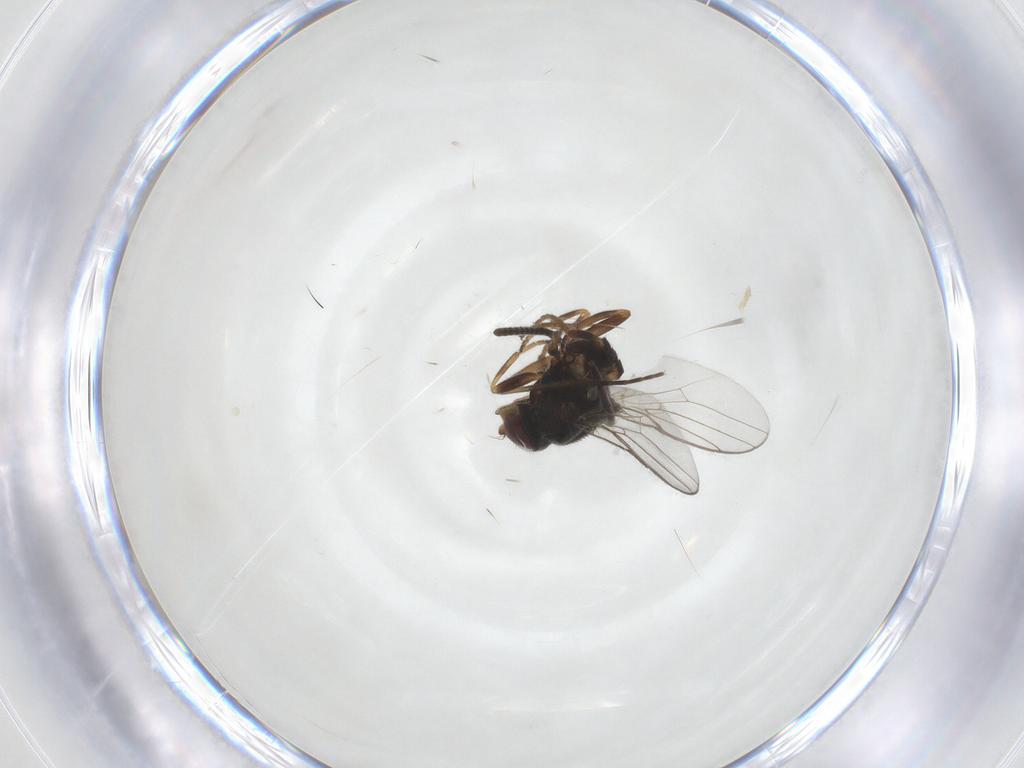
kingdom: Animalia
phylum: Arthropoda
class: Insecta
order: Diptera
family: Chloropidae
